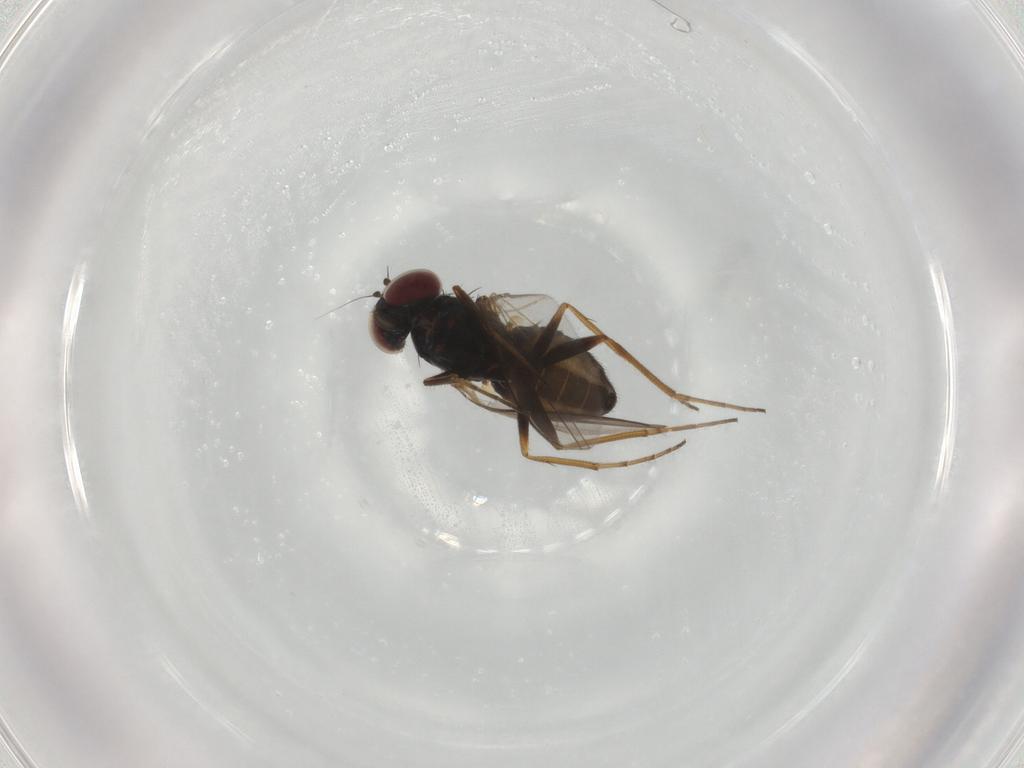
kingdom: Animalia
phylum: Arthropoda
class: Insecta
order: Diptera
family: Dolichopodidae
